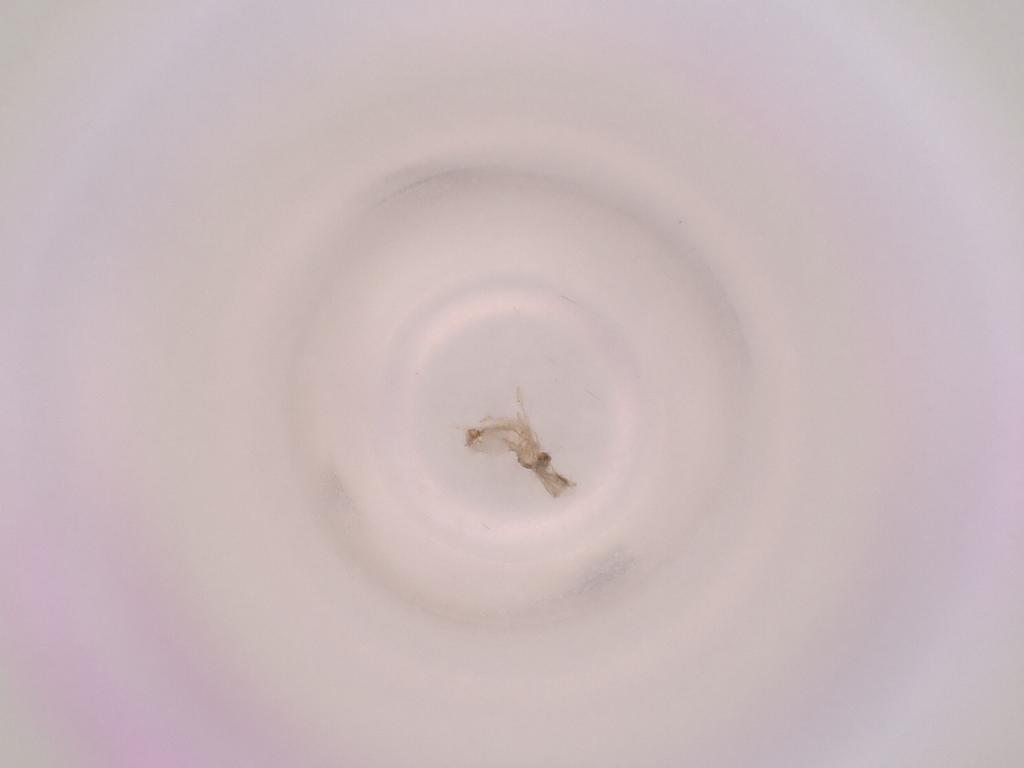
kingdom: Animalia
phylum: Arthropoda
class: Insecta
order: Diptera
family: Cecidomyiidae
